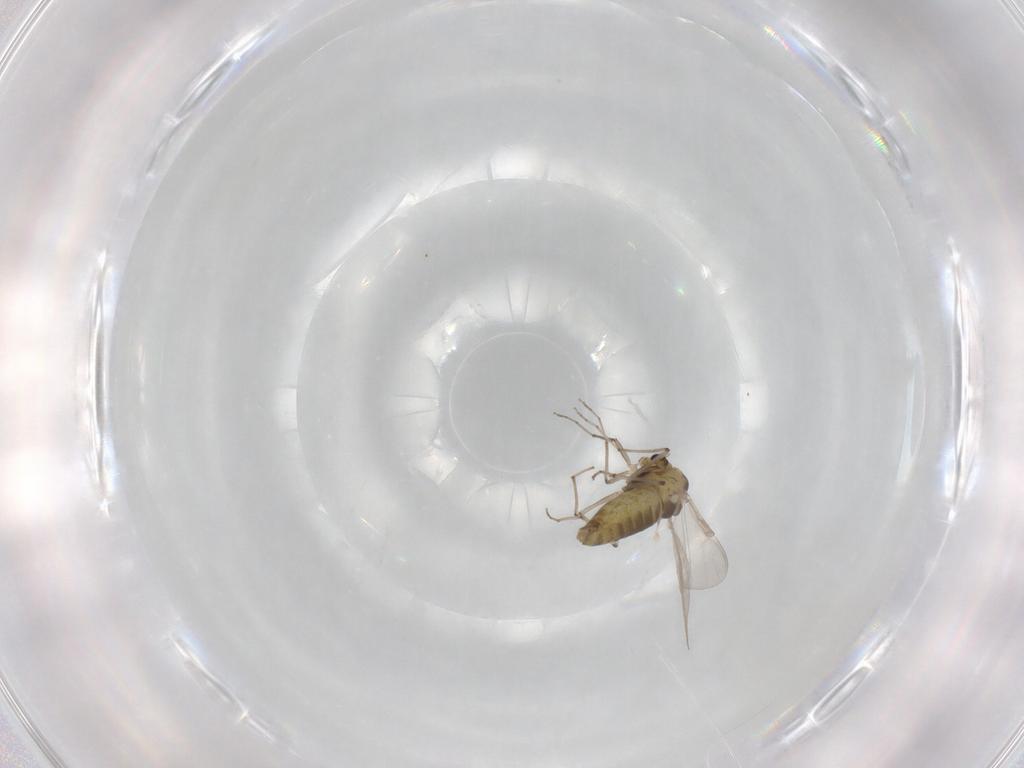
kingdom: Animalia
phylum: Arthropoda
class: Insecta
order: Diptera
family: Chironomidae
